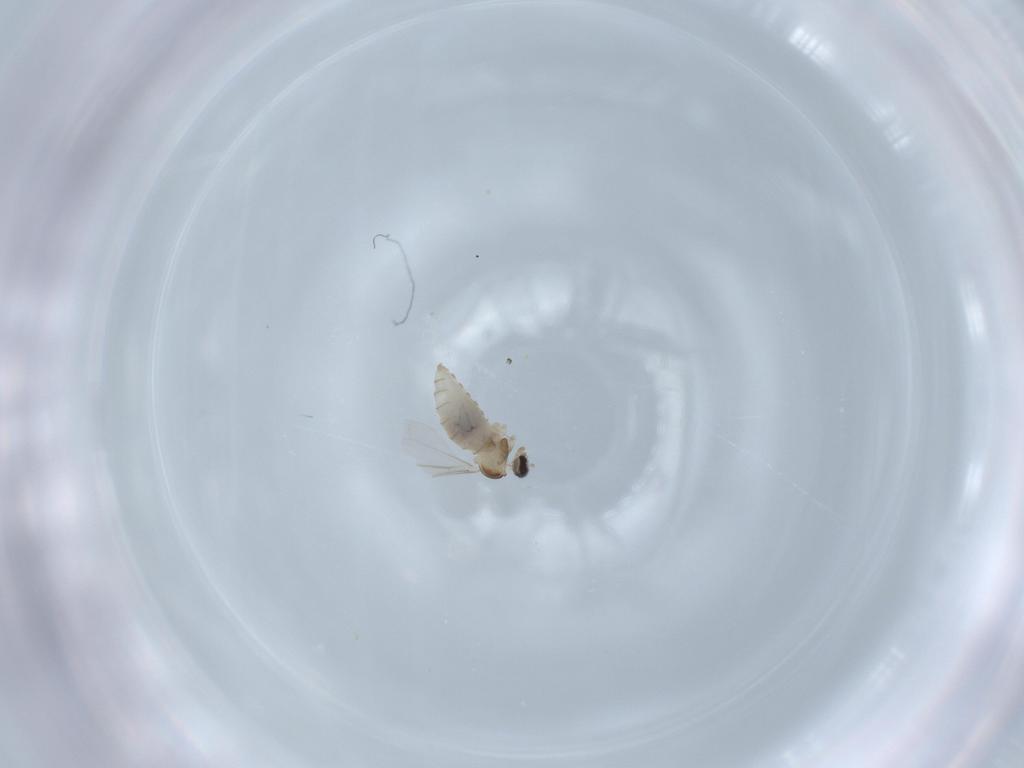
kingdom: Animalia
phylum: Arthropoda
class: Insecta
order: Diptera
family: Cecidomyiidae
